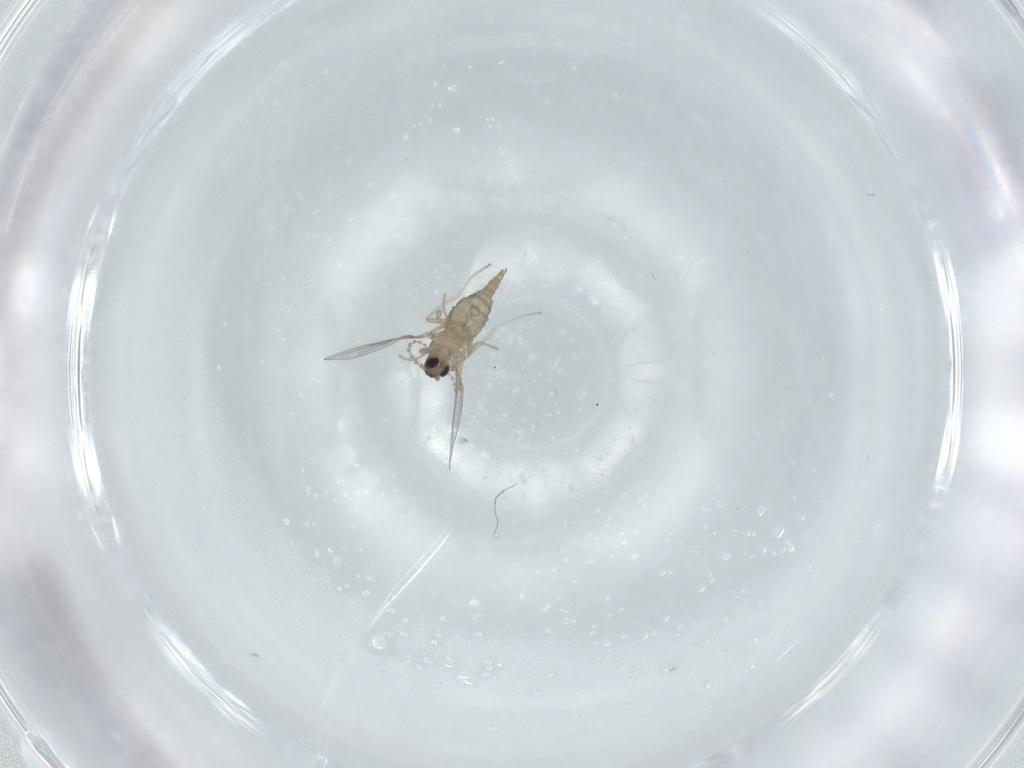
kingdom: Animalia
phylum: Arthropoda
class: Insecta
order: Diptera
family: Cecidomyiidae
